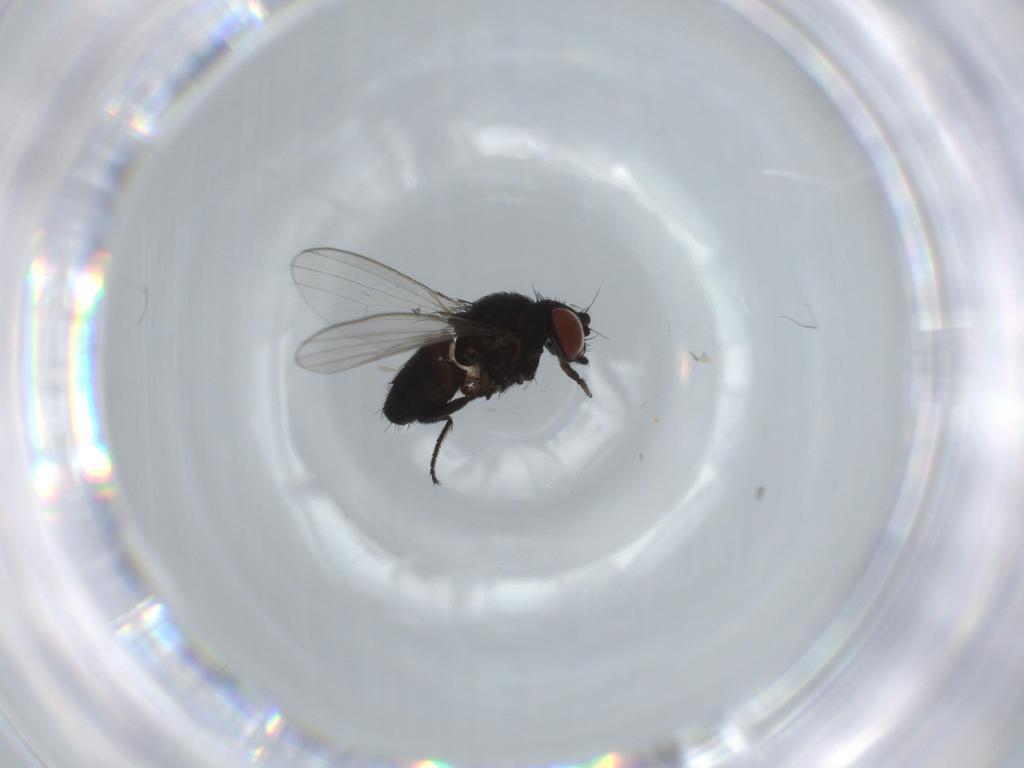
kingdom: Animalia
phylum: Arthropoda
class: Insecta
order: Diptera
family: Milichiidae
